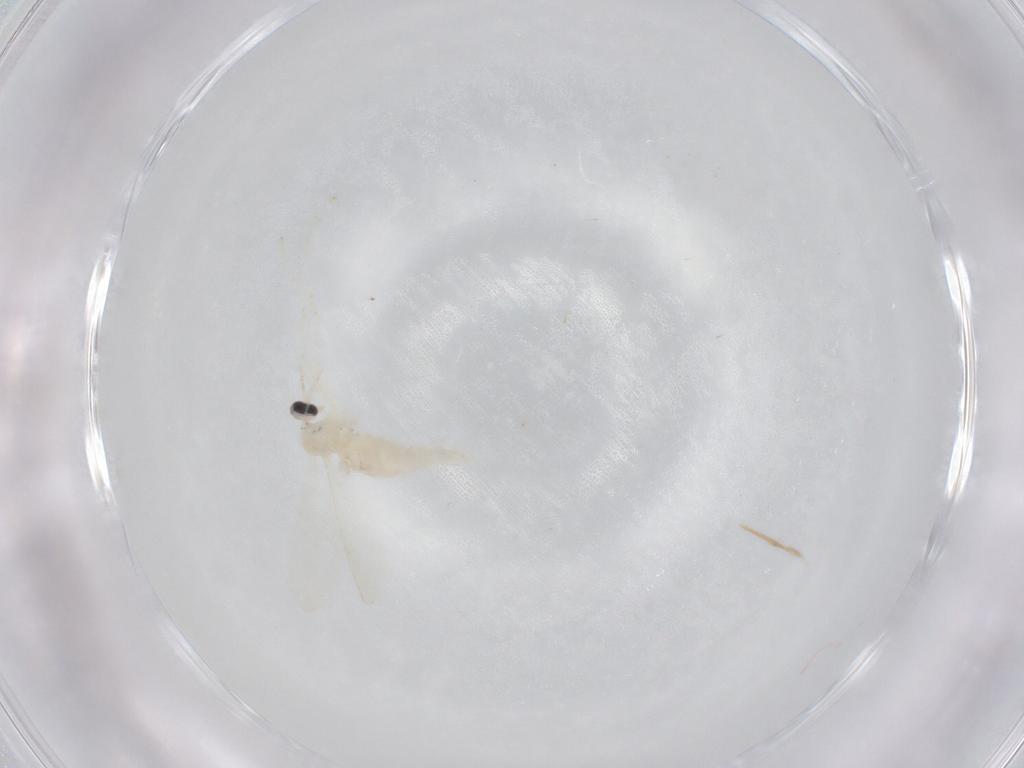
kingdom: Animalia
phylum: Arthropoda
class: Insecta
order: Diptera
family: Cecidomyiidae
